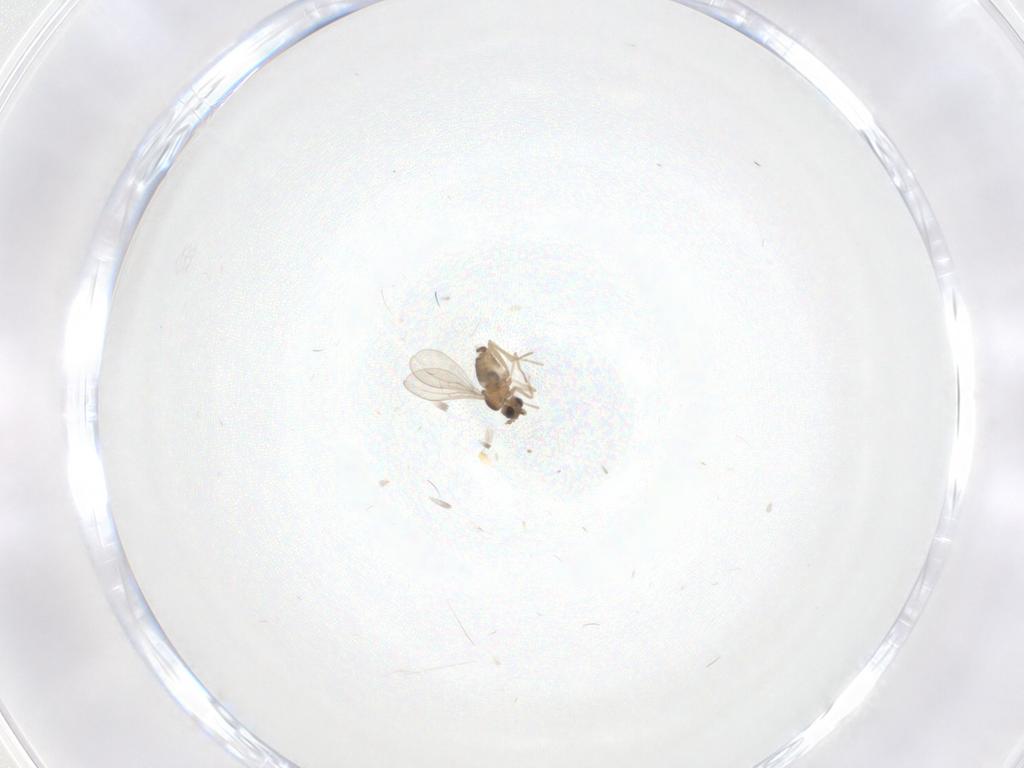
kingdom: Animalia
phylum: Arthropoda
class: Insecta
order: Diptera
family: Cecidomyiidae
